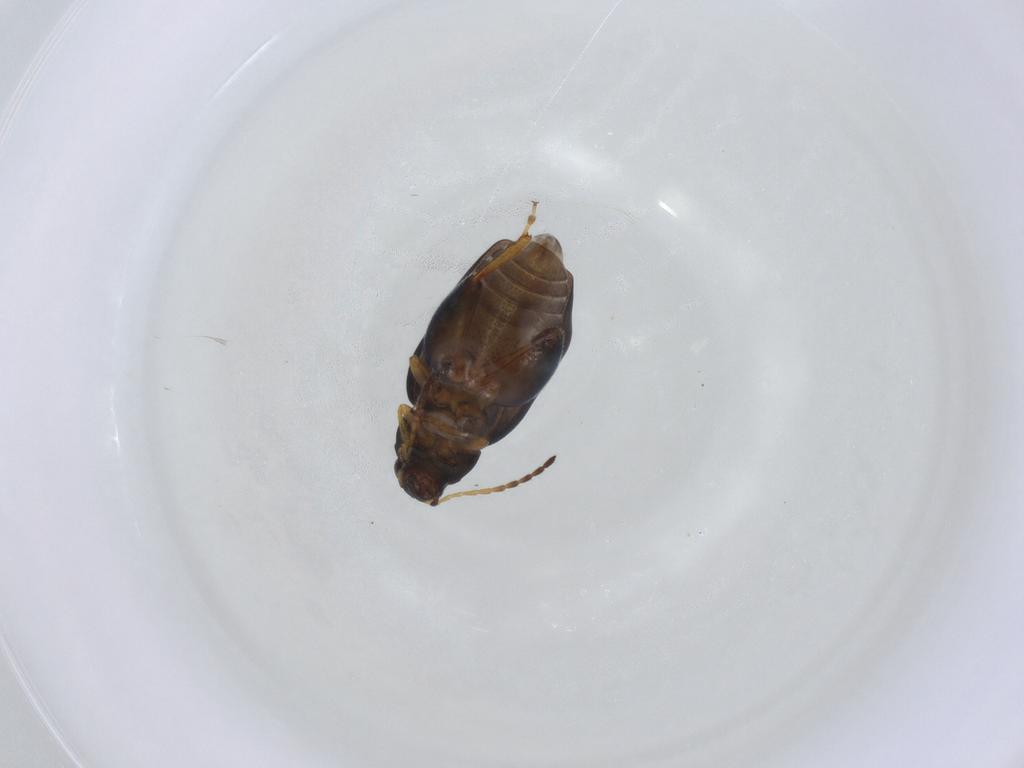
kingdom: Animalia
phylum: Arthropoda
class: Insecta
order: Coleoptera
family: Chrysomelidae
